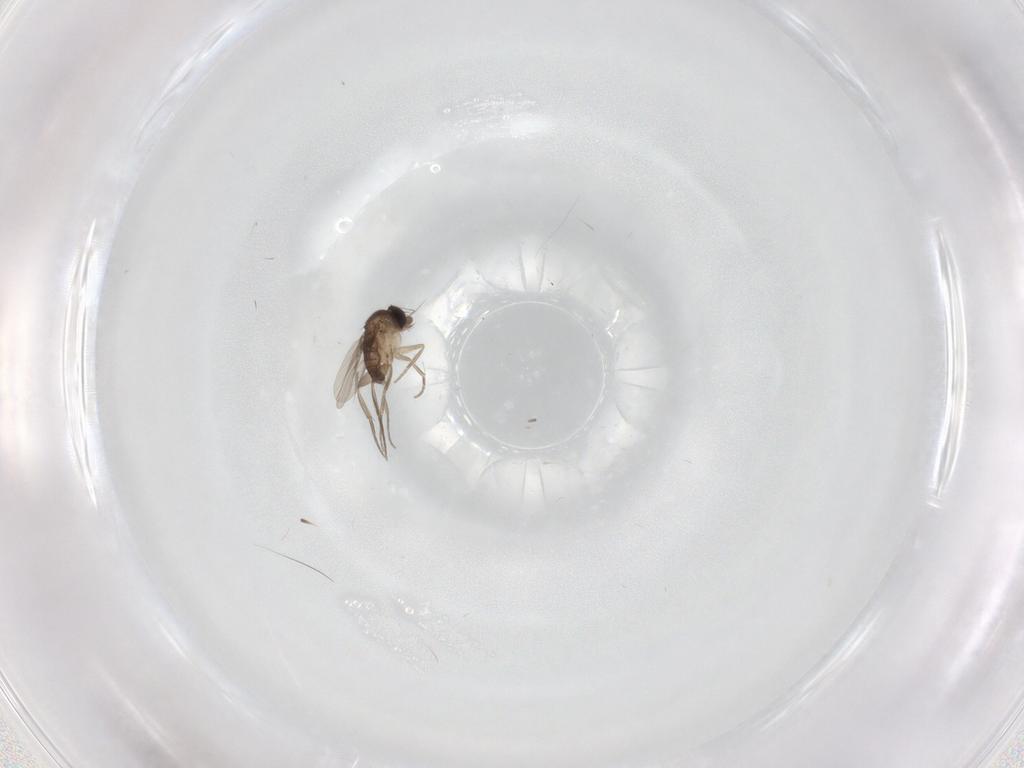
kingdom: Animalia
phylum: Arthropoda
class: Insecta
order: Diptera
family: Phoridae
